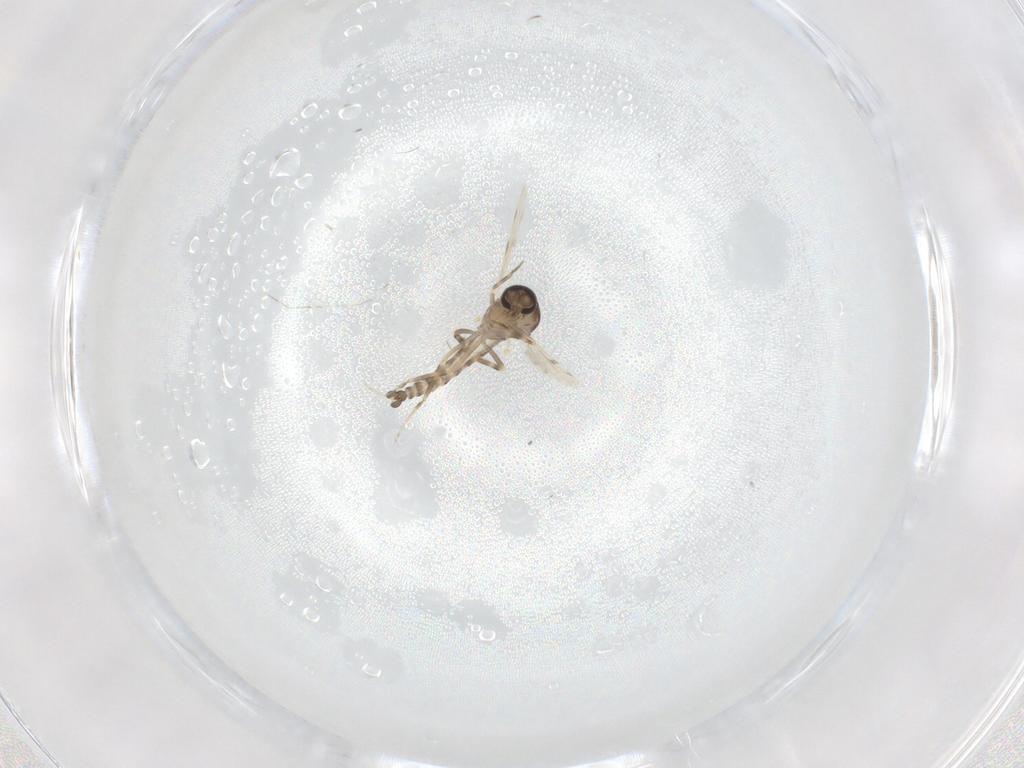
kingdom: Animalia
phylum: Arthropoda
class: Insecta
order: Diptera
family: Ceratopogonidae
